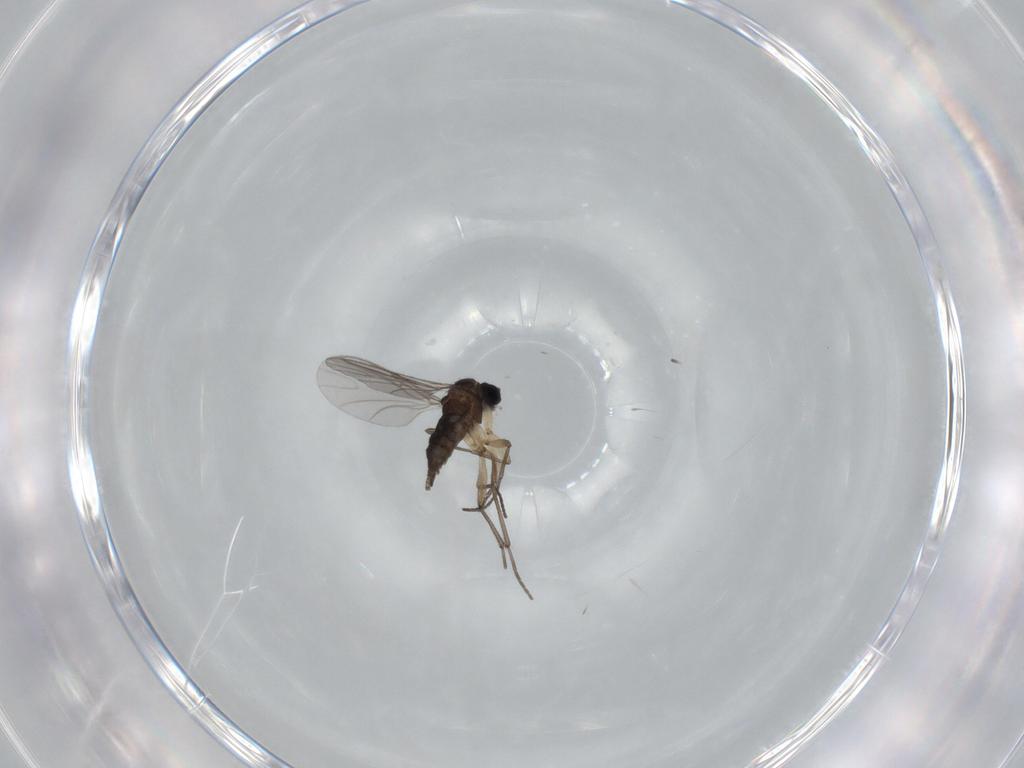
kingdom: Animalia
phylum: Arthropoda
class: Insecta
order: Diptera
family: Sciaridae
